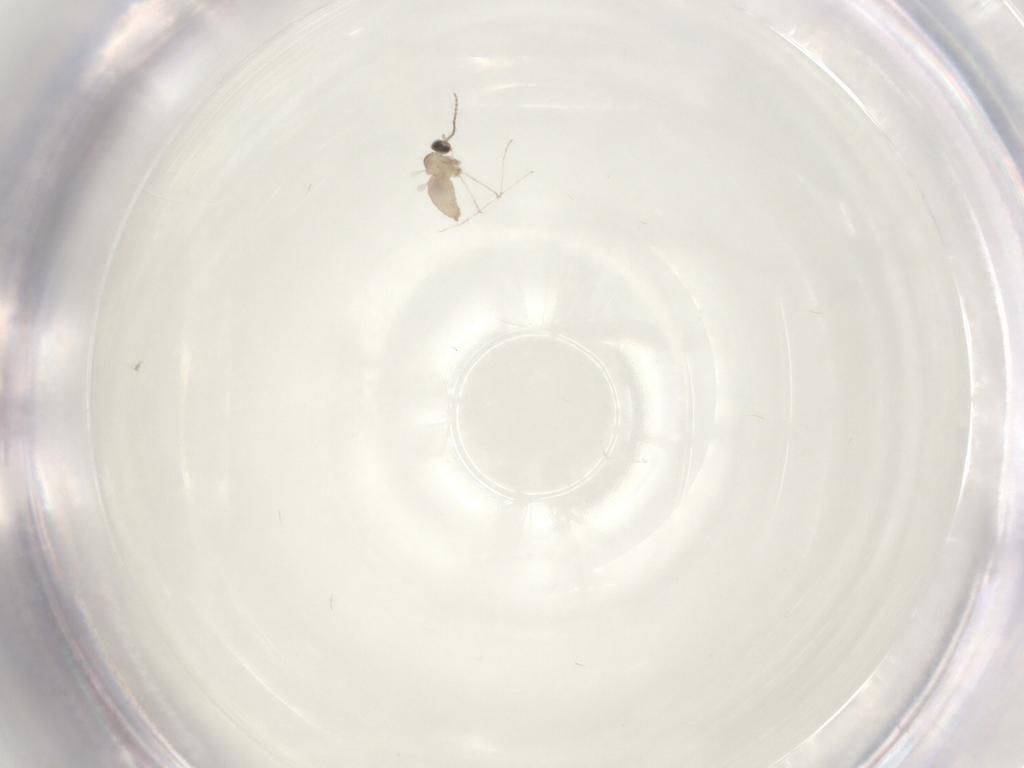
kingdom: Animalia
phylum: Arthropoda
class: Insecta
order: Diptera
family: Cecidomyiidae
